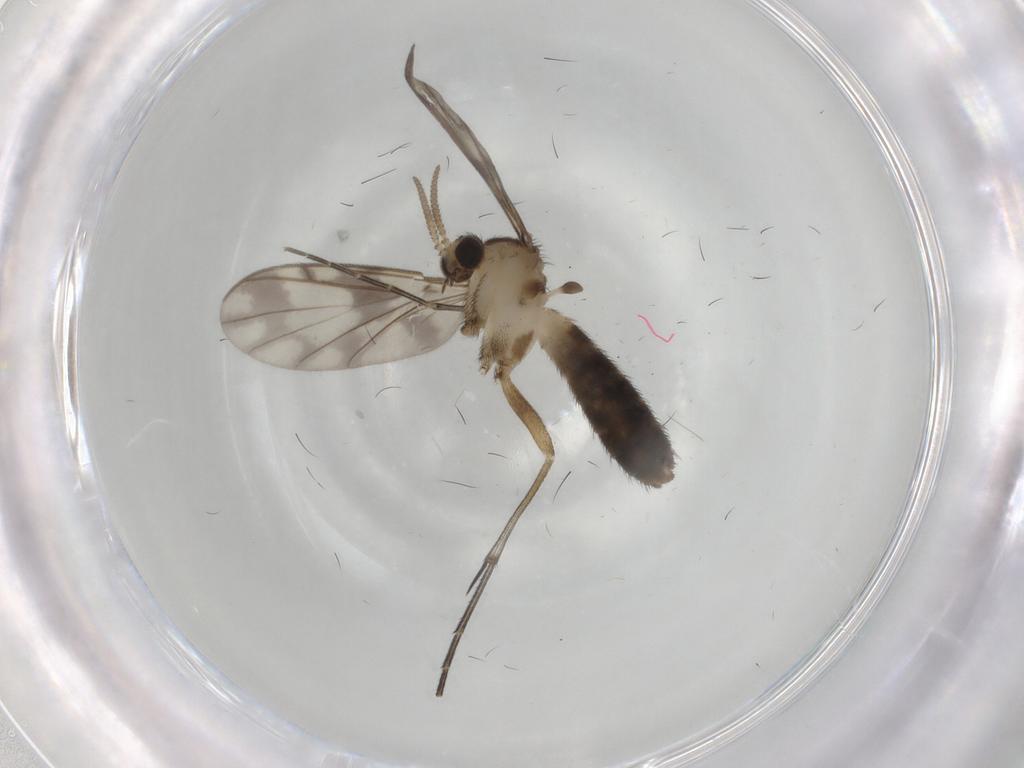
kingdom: Animalia
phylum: Arthropoda
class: Insecta
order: Diptera
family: Keroplatidae
